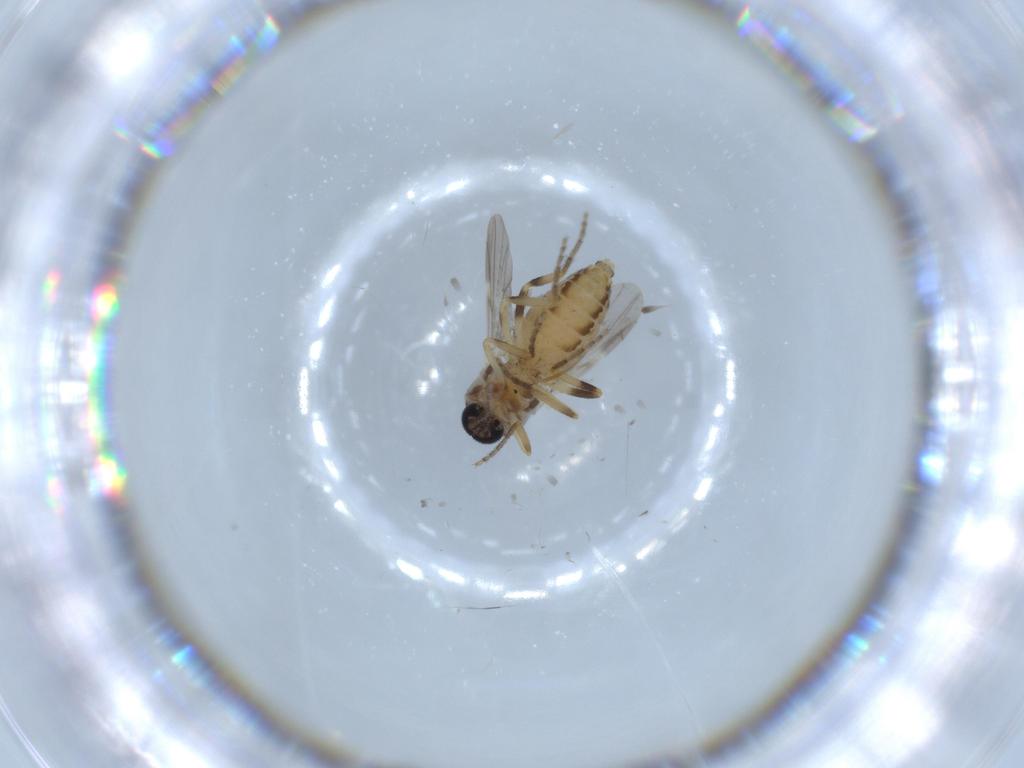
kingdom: Animalia
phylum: Arthropoda
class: Insecta
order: Diptera
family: Ceratopogonidae
